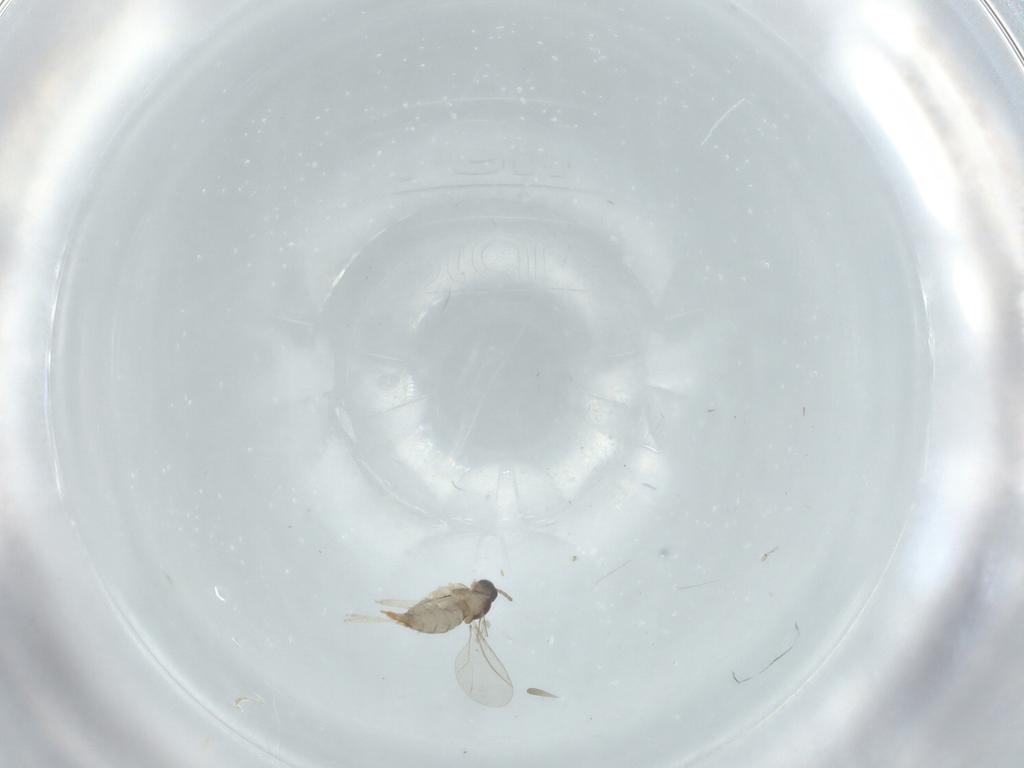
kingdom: Animalia
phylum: Arthropoda
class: Insecta
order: Diptera
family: Cecidomyiidae
